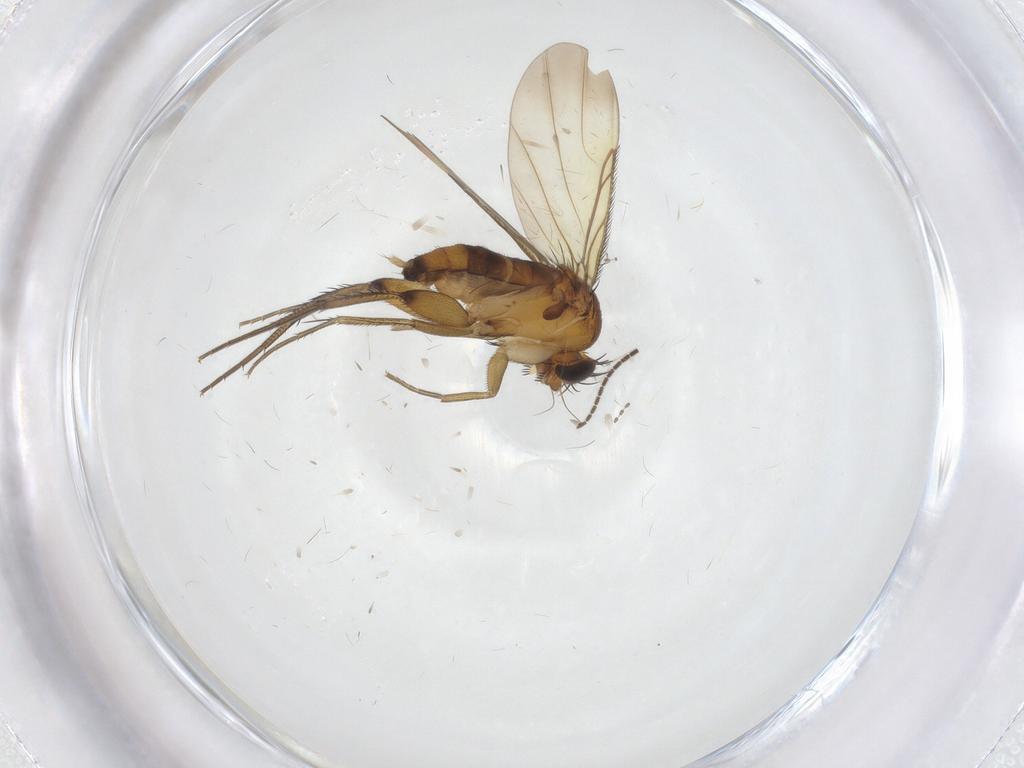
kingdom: Animalia
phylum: Arthropoda
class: Insecta
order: Diptera
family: Phoridae
